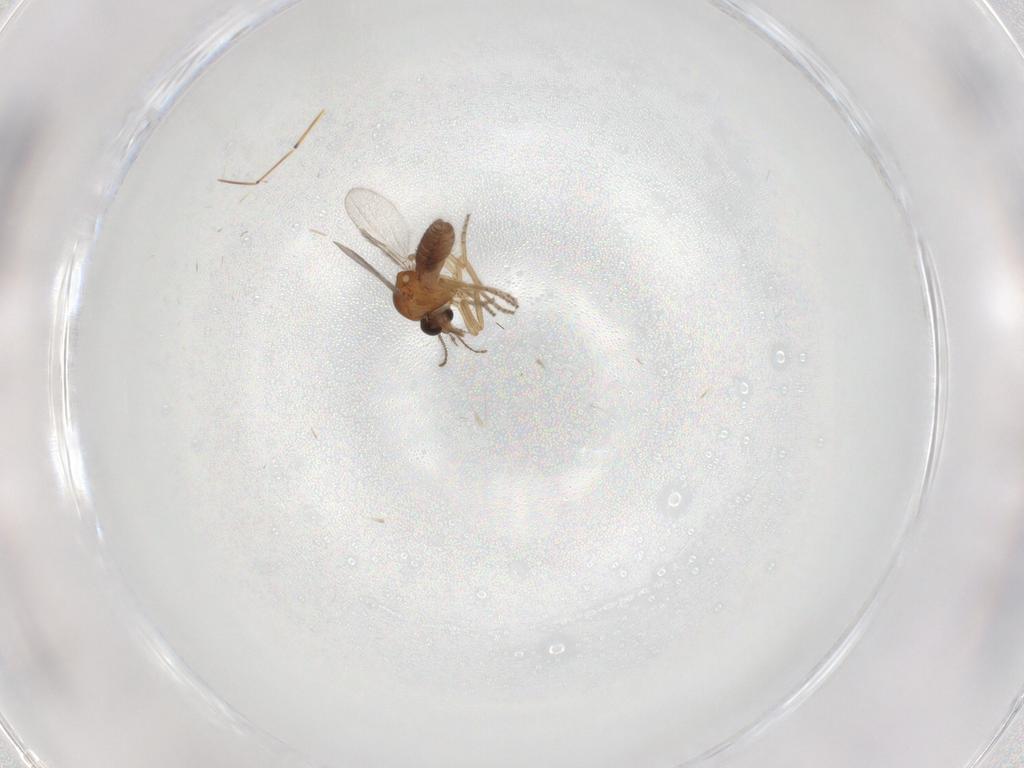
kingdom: Animalia
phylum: Arthropoda
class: Insecta
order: Diptera
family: Ceratopogonidae
